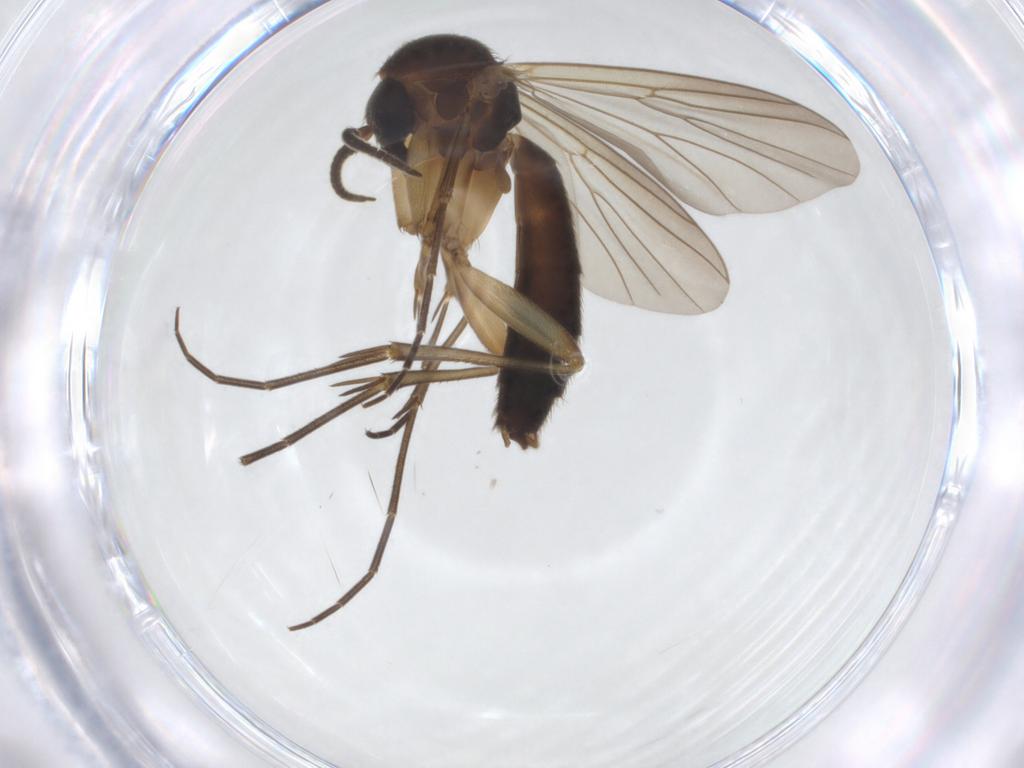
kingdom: Animalia
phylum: Arthropoda
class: Insecta
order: Diptera
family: Mycetophilidae
